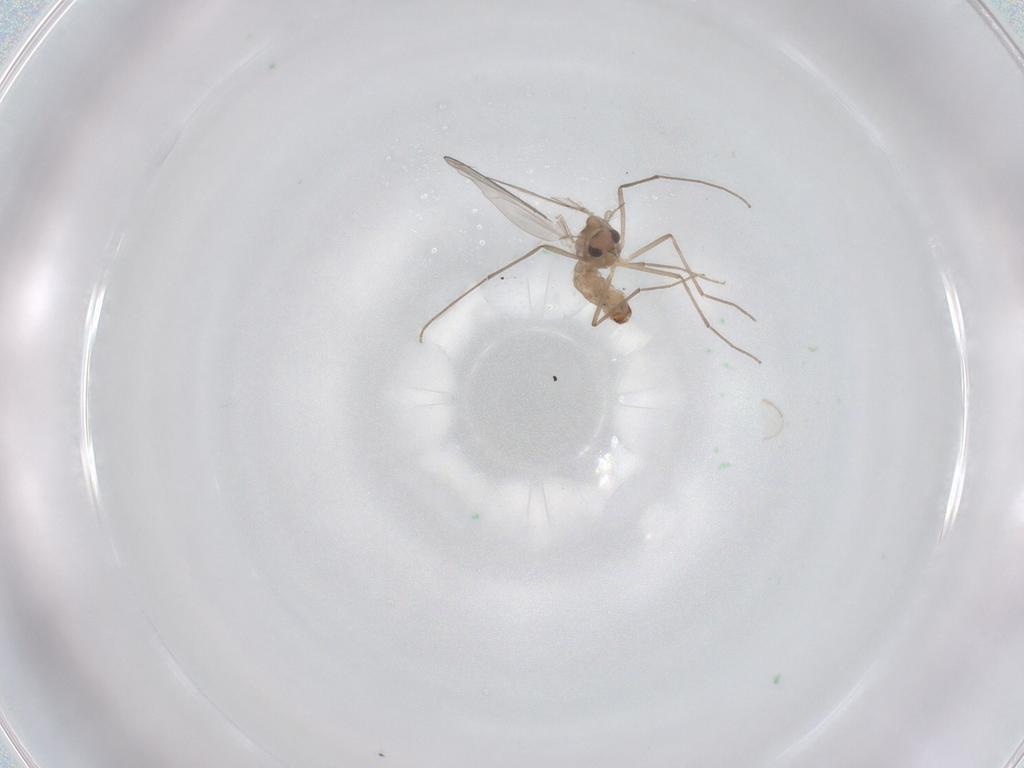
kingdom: Animalia
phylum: Arthropoda
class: Insecta
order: Diptera
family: Chironomidae
